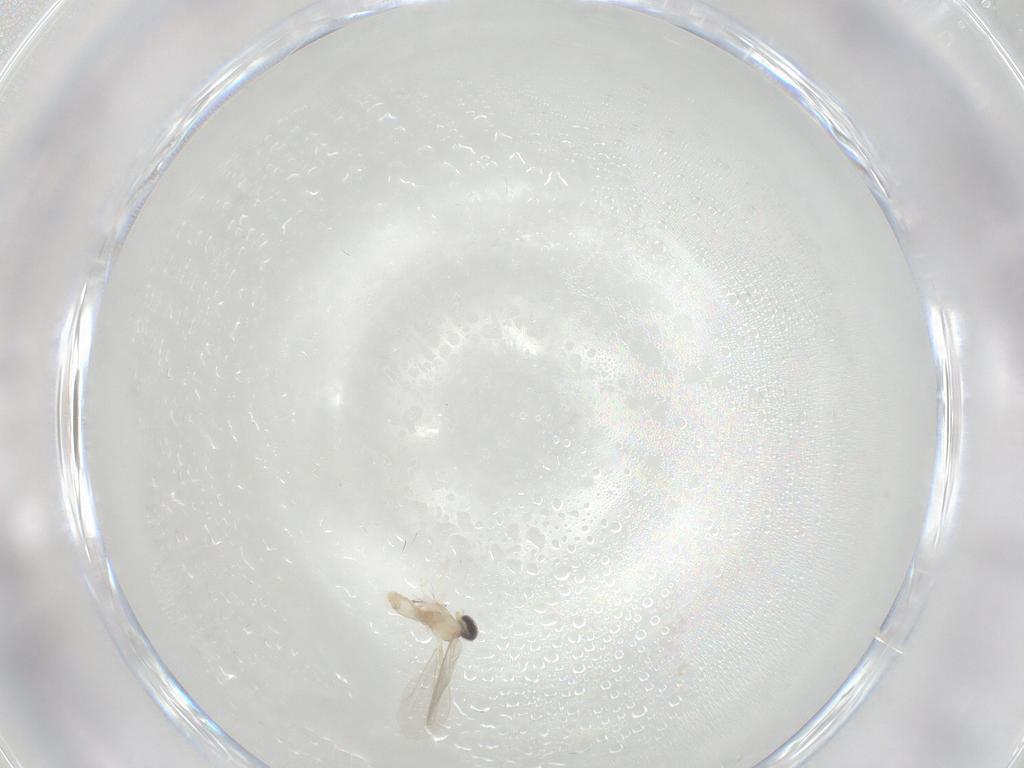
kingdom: Animalia
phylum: Arthropoda
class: Insecta
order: Diptera
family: Cecidomyiidae
